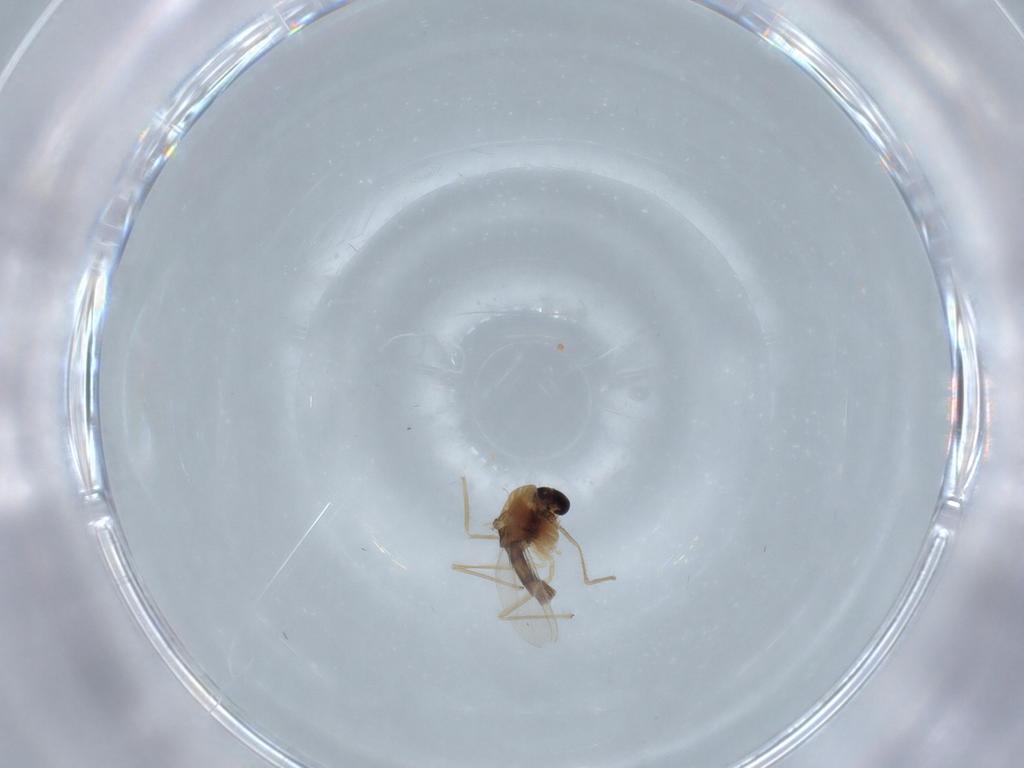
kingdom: Animalia
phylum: Arthropoda
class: Insecta
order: Diptera
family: Chironomidae
